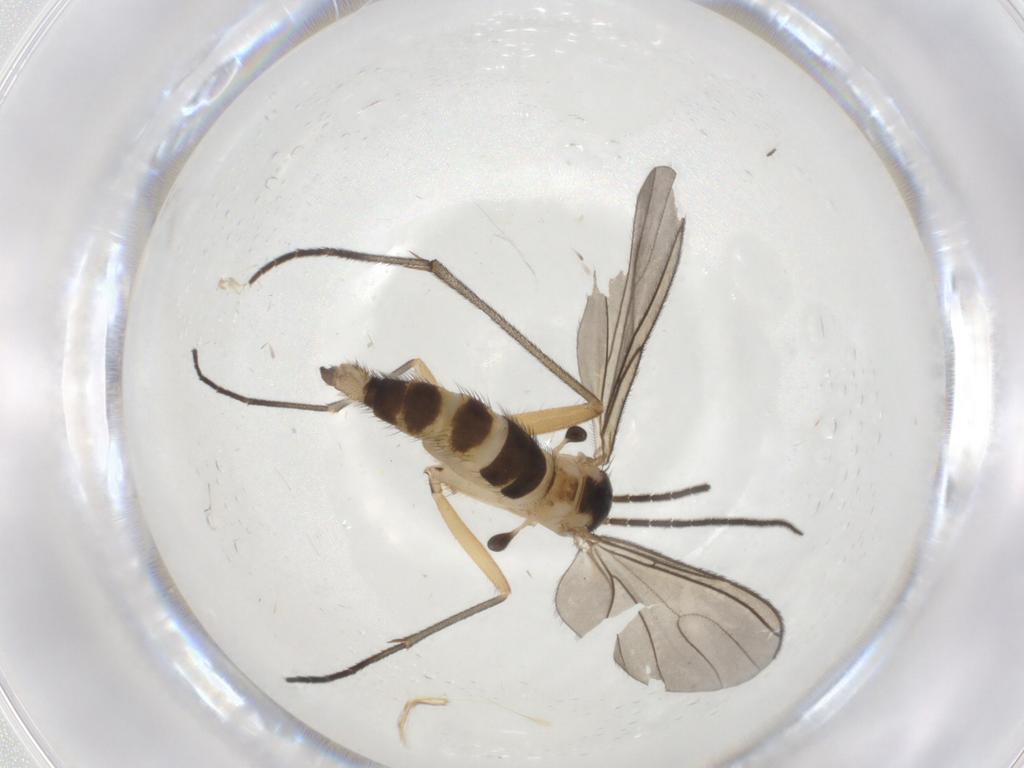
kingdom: Animalia
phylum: Arthropoda
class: Insecta
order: Diptera
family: Sciaridae
